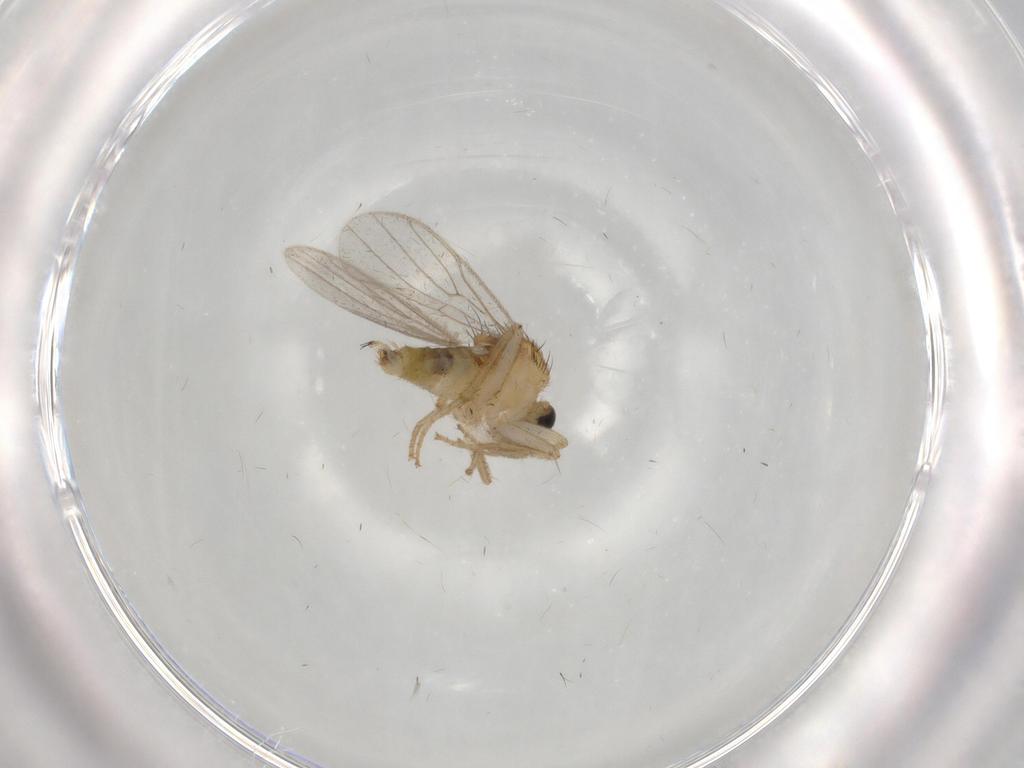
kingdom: Animalia
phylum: Arthropoda
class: Insecta
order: Diptera
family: Hybotidae
